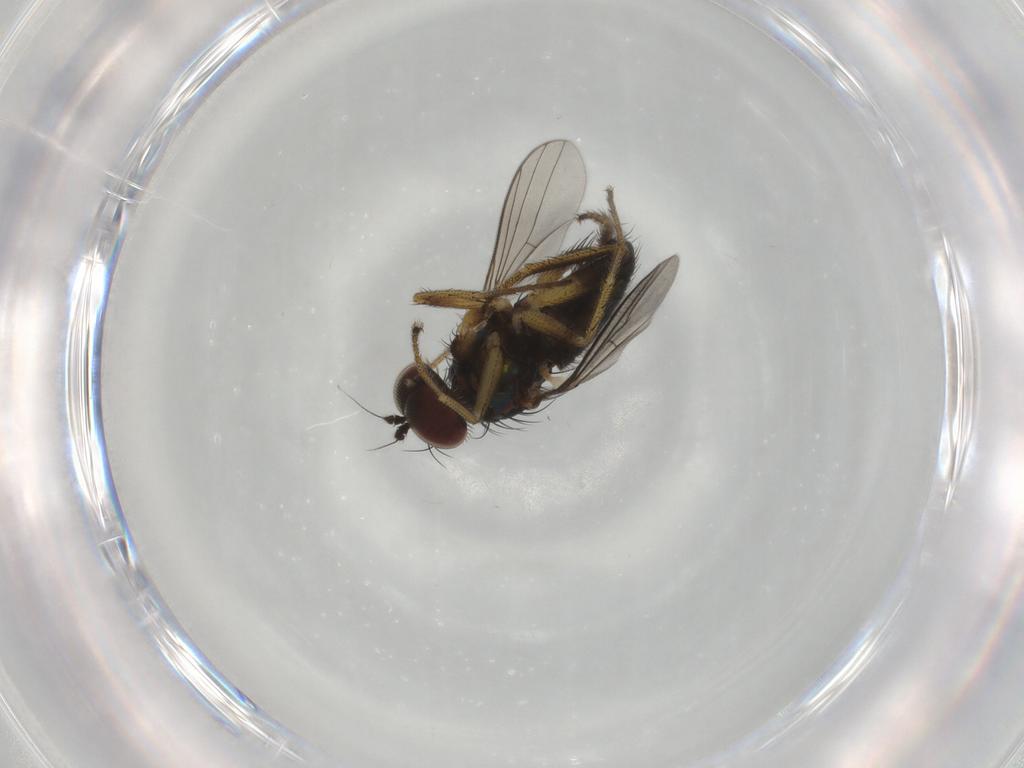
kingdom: Animalia
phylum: Arthropoda
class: Insecta
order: Diptera
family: Dolichopodidae
